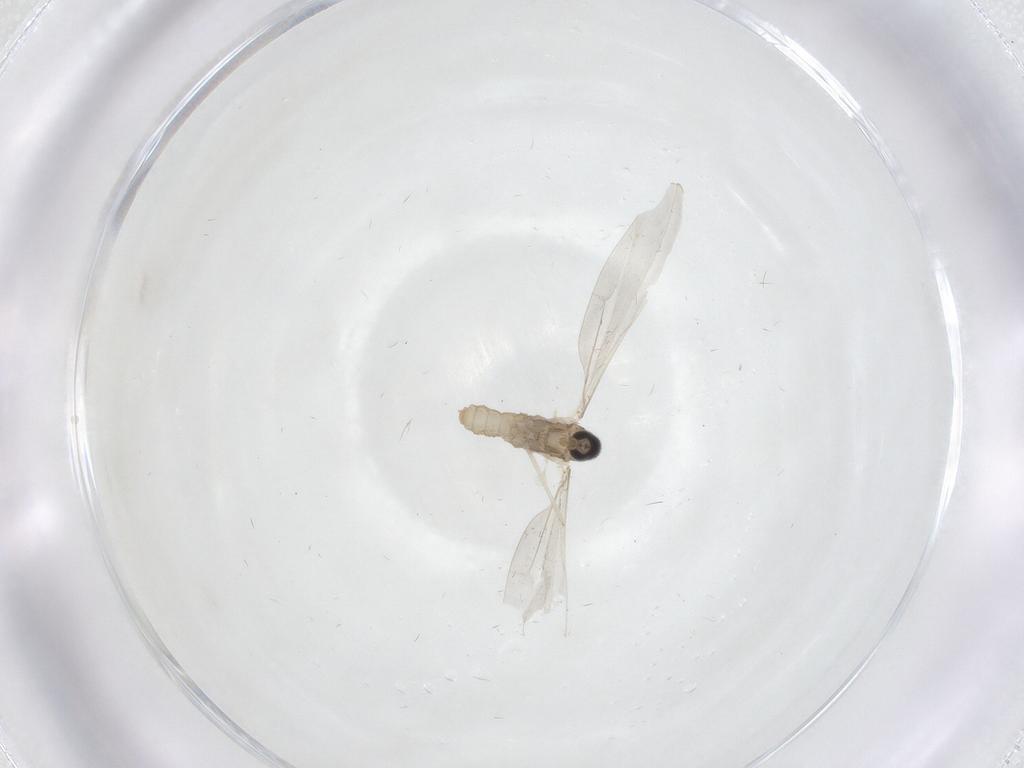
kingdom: Animalia
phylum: Arthropoda
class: Insecta
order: Diptera
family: Cecidomyiidae
